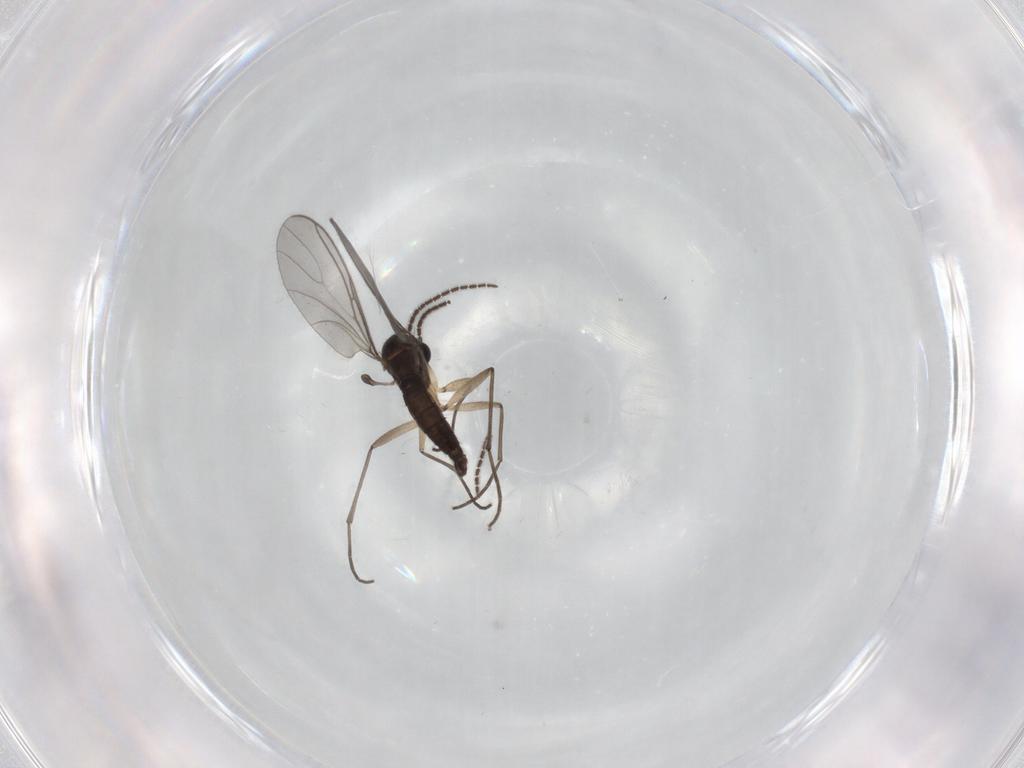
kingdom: Animalia
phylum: Arthropoda
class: Insecta
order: Diptera
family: Sciaridae
